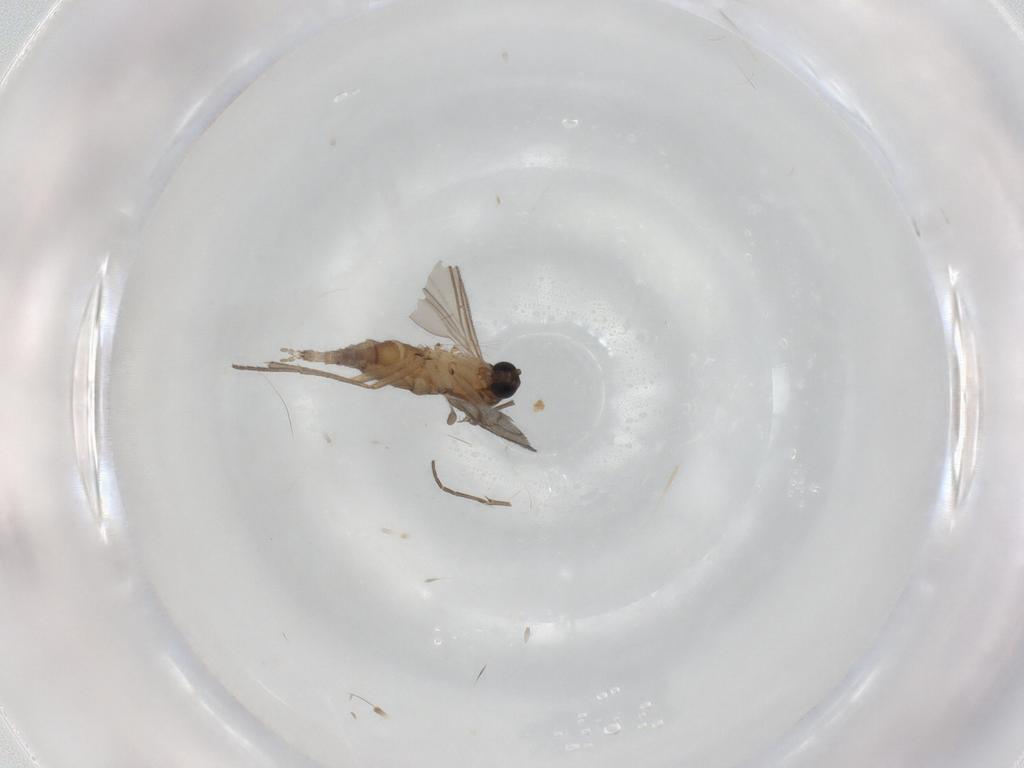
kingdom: Animalia
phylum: Arthropoda
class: Insecta
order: Diptera
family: Sciaridae
